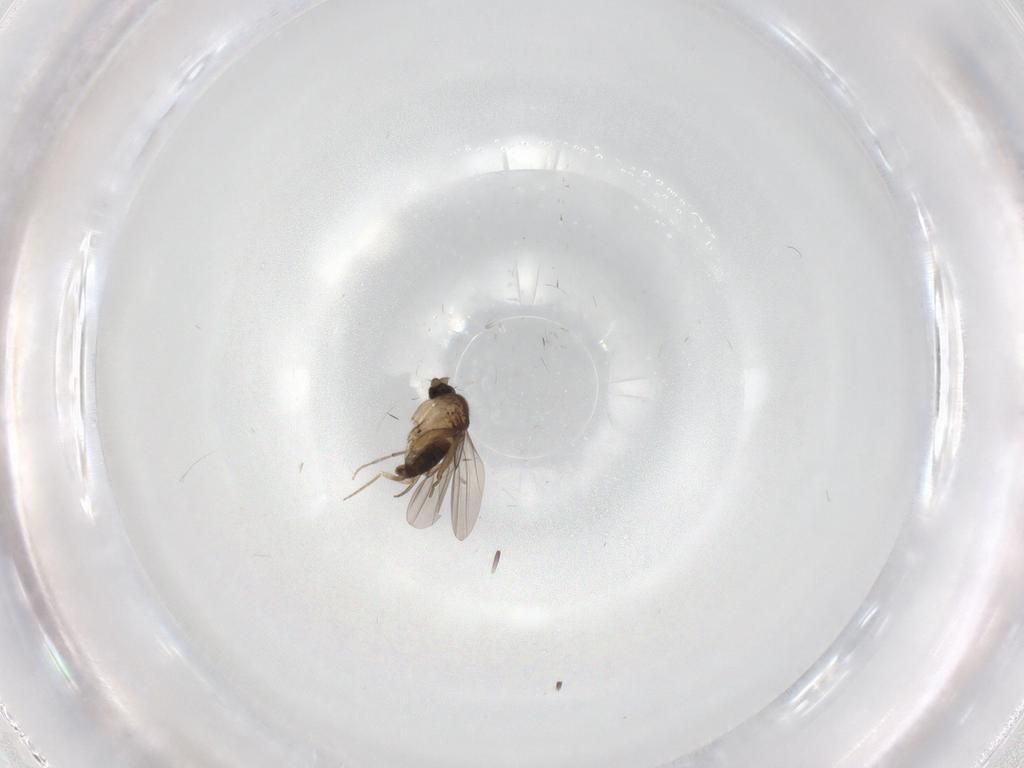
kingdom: Animalia
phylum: Arthropoda
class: Insecta
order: Diptera
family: Phoridae
